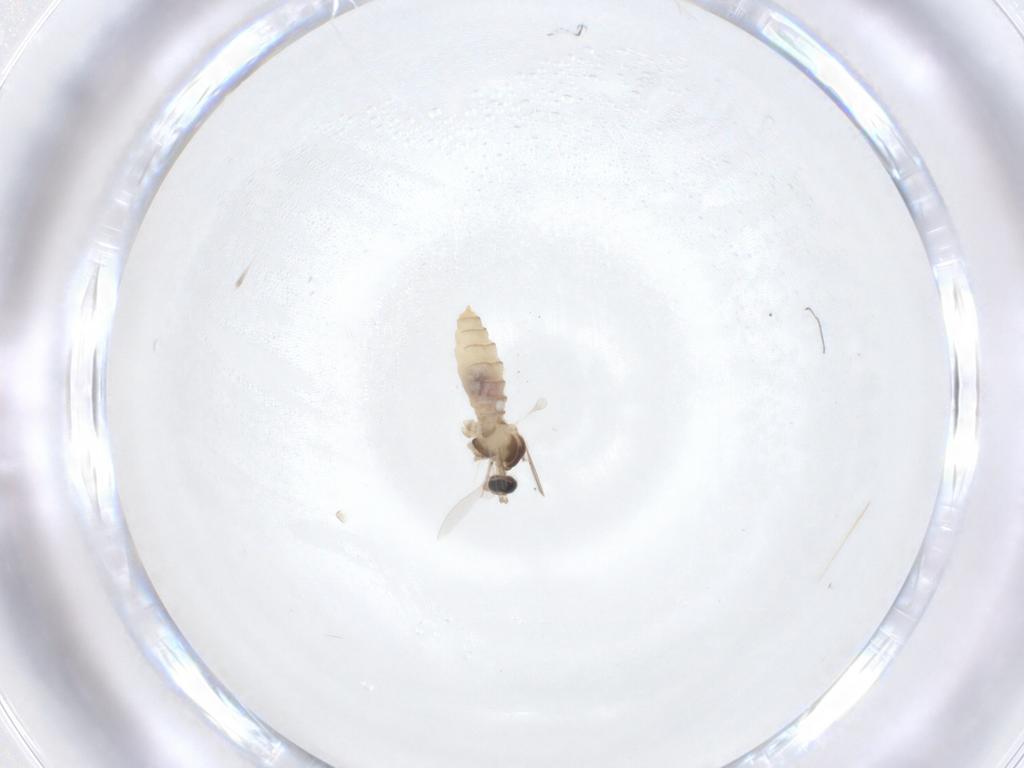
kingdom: Animalia
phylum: Arthropoda
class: Insecta
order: Diptera
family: Cecidomyiidae
